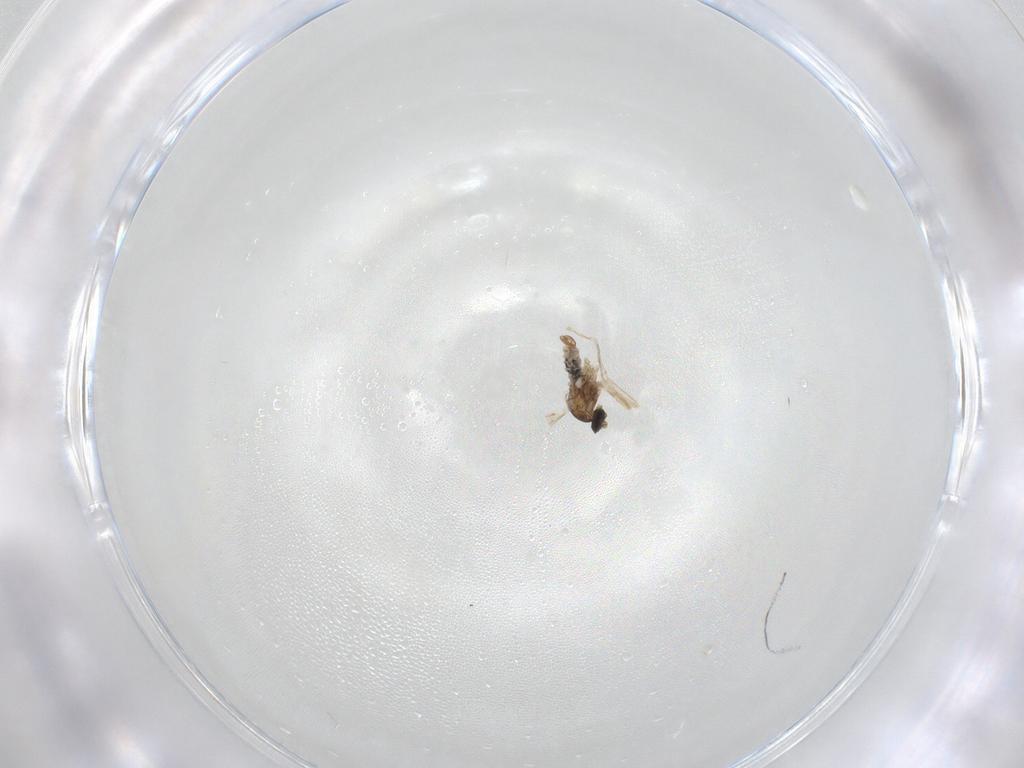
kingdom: Animalia
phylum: Arthropoda
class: Insecta
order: Diptera
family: Cecidomyiidae
